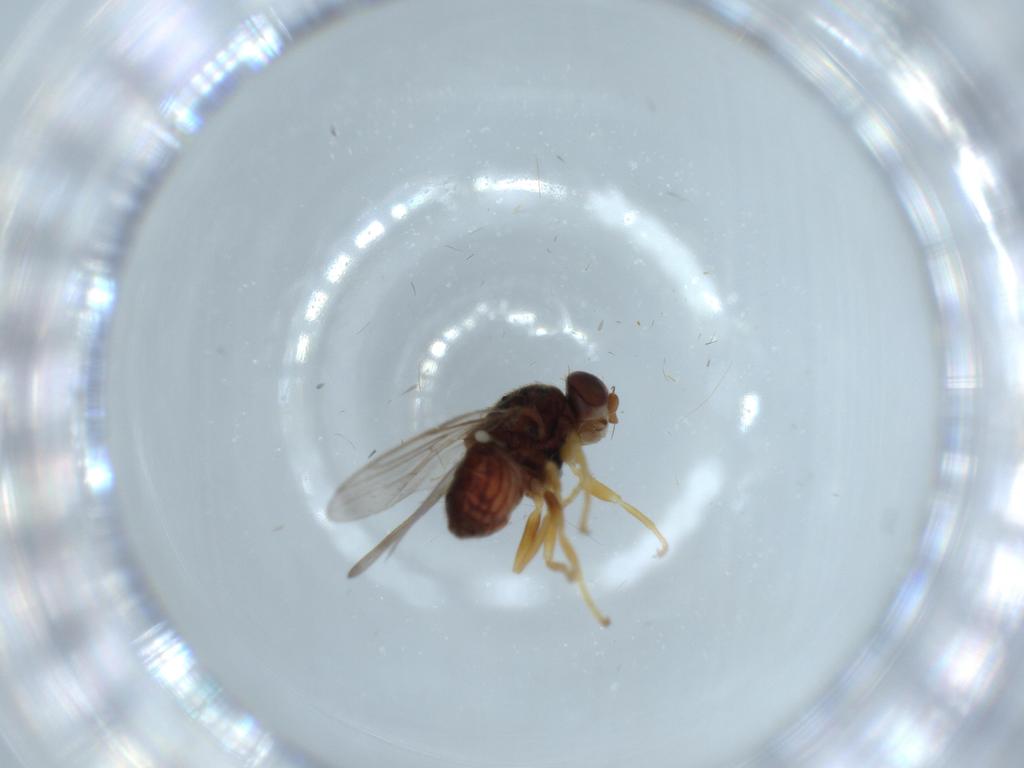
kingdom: Animalia
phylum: Arthropoda
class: Insecta
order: Diptera
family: Chloropidae
